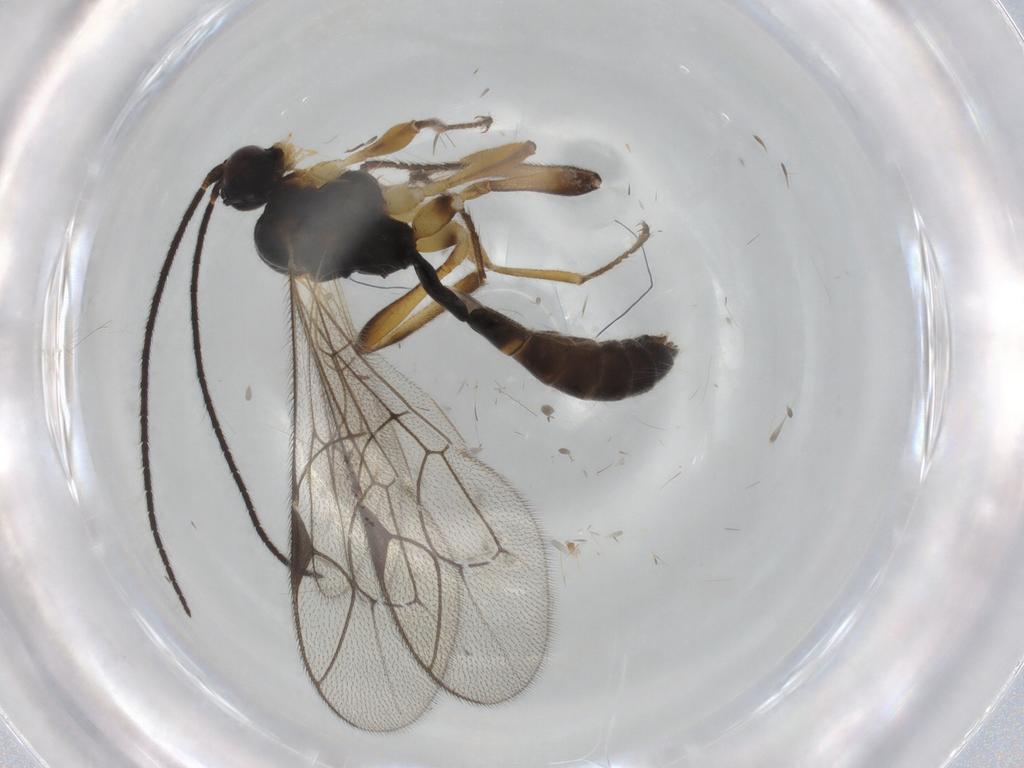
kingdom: Animalia
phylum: Arthropoda
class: Insecta
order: Hymenoptera
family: Ichneumonidae
